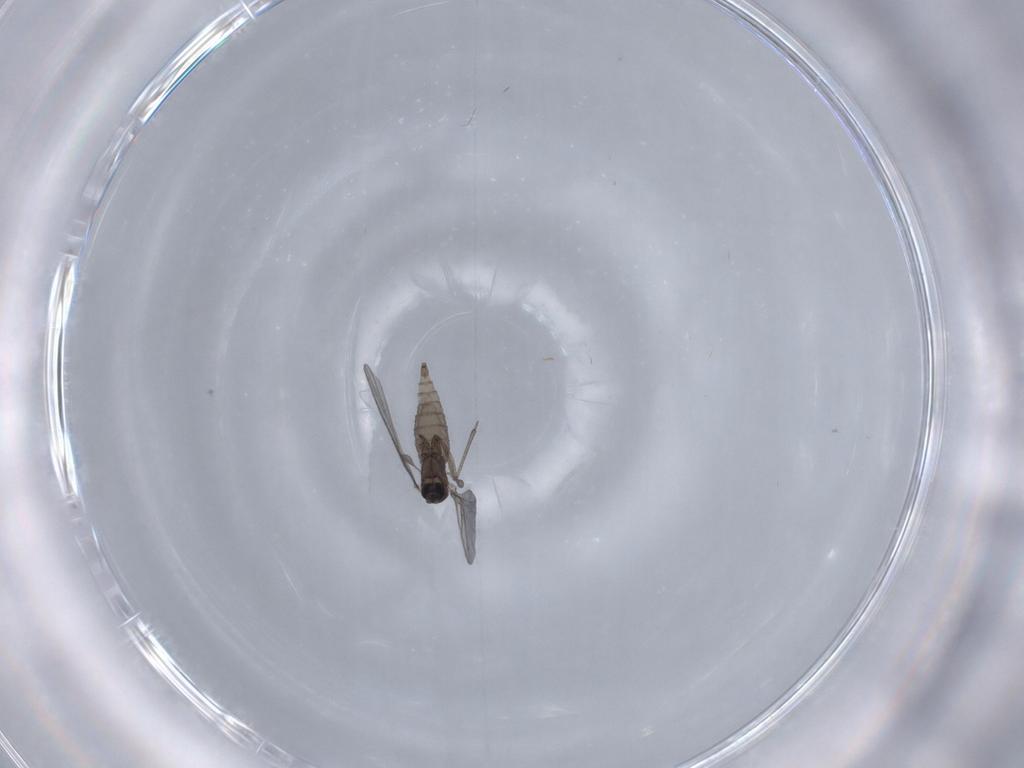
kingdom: Animalia
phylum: Arthropoda
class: Insecta
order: Diptera
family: Sciaridae
